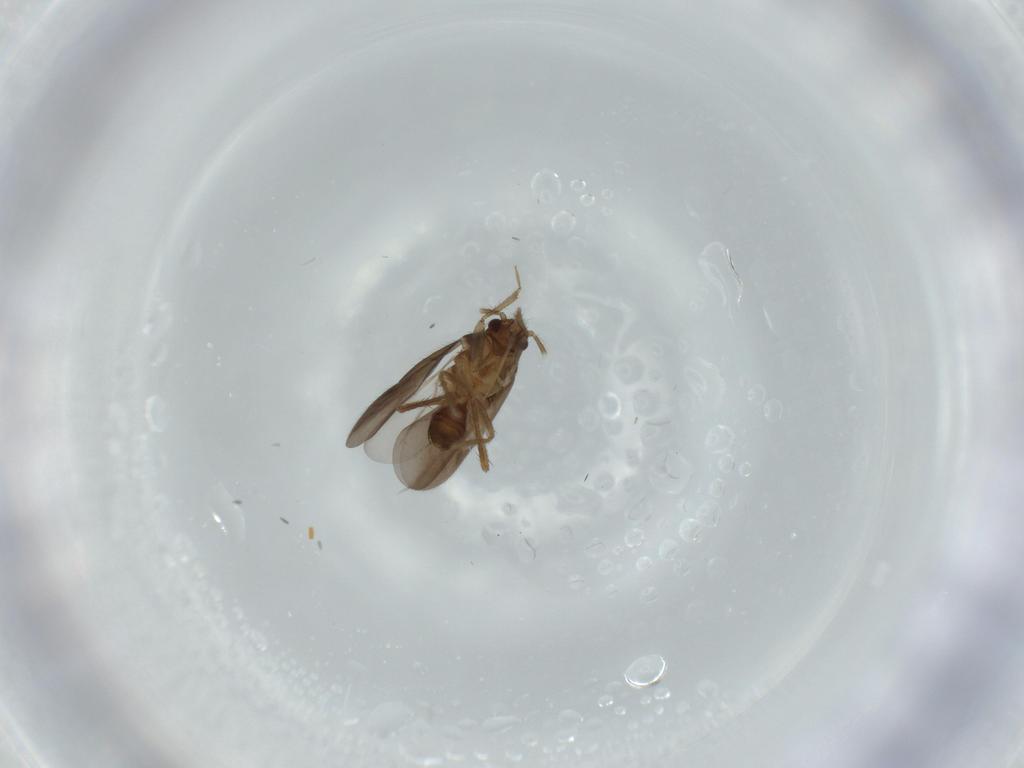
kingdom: Animalia
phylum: Arthropoda
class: Insecta
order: Hemiptera
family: Ceratocombidae
